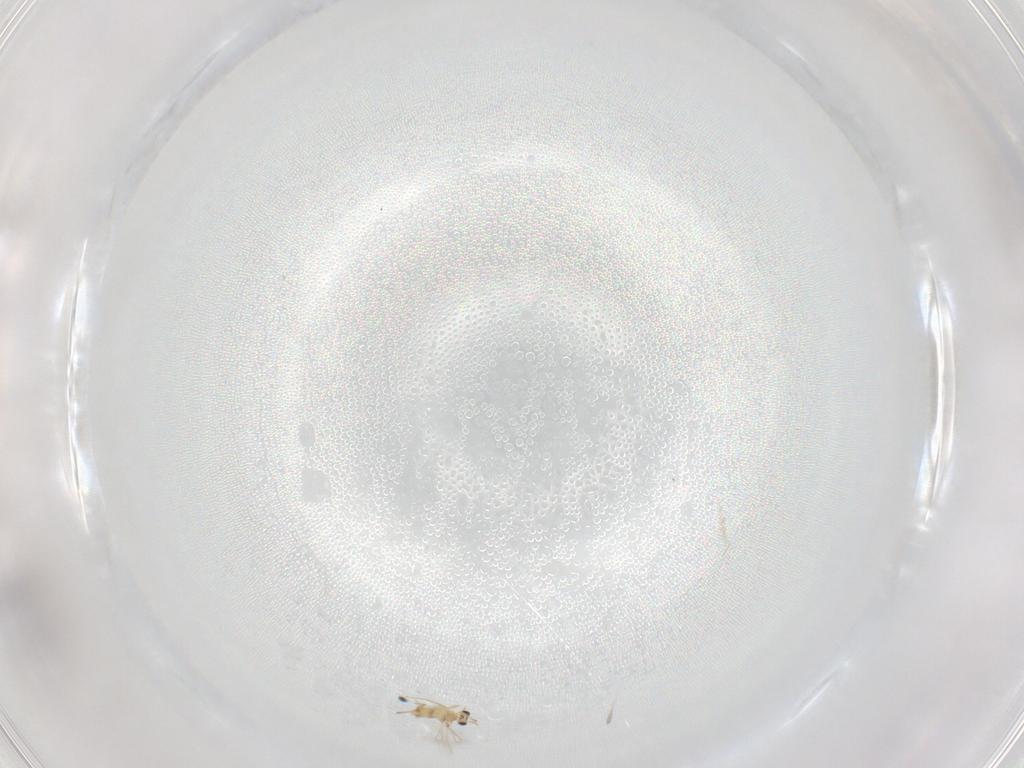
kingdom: Animalia
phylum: Arthropoda
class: Insecta
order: Hymenoptera
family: Mymaridae
